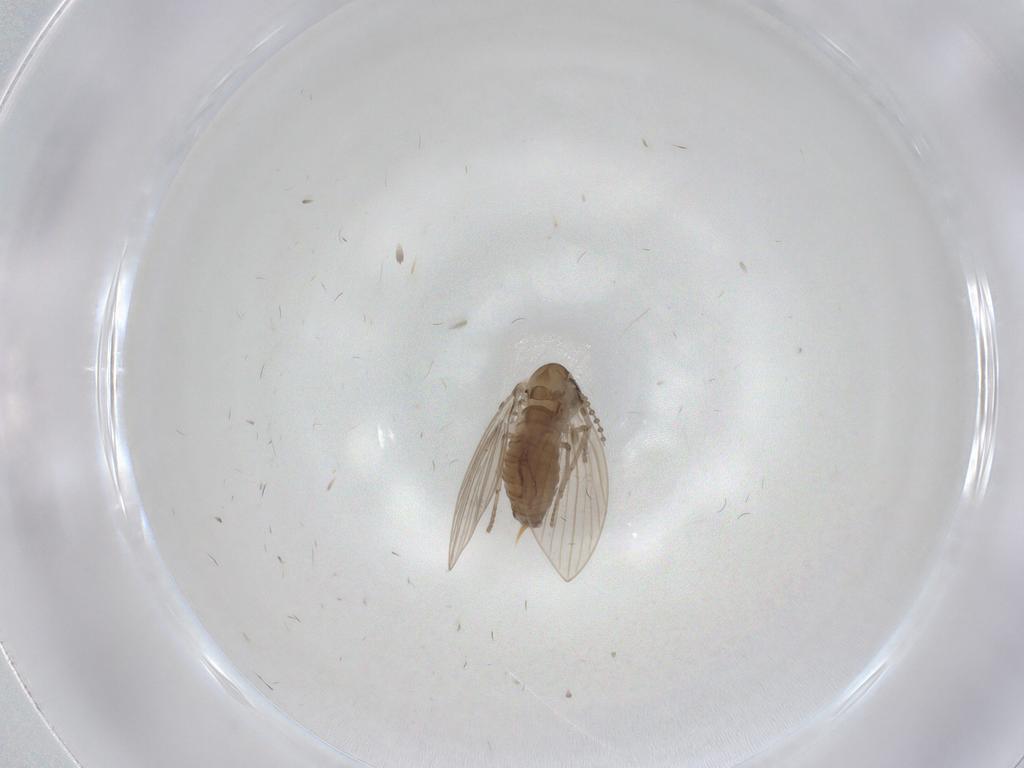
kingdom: Animalia
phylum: Arthropoda
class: Insecta
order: Diptera
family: Psychodidae
